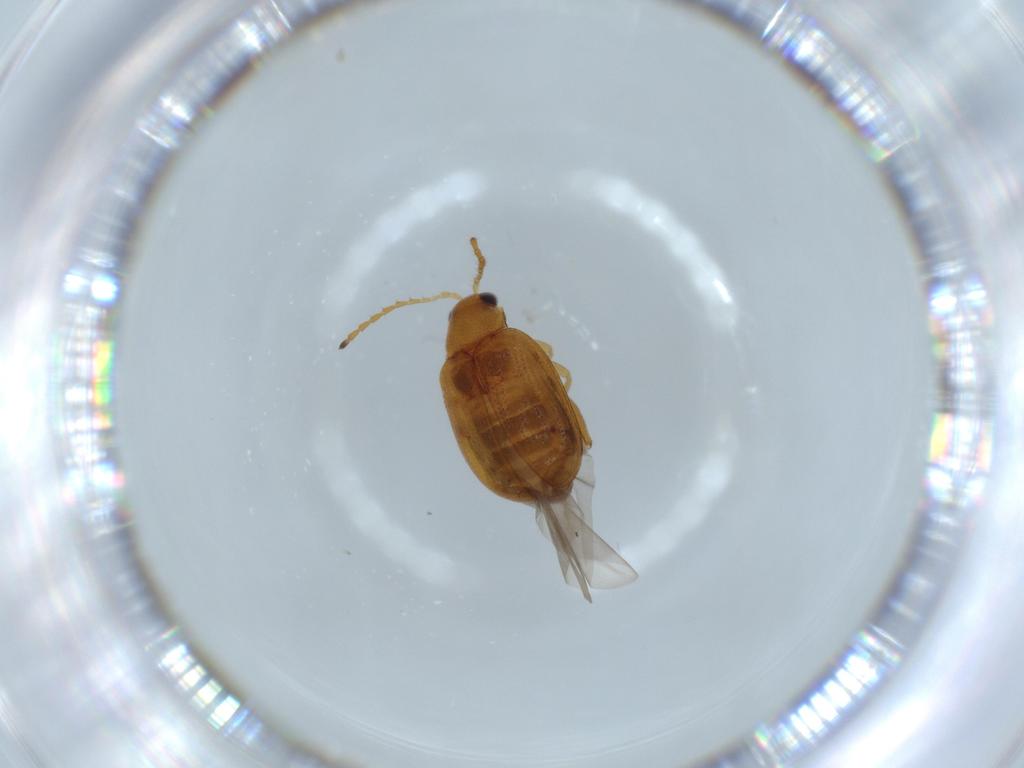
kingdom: Animalia
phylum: Arthropoda
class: Insecta
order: Coleoptera
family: Chrysomelidae
